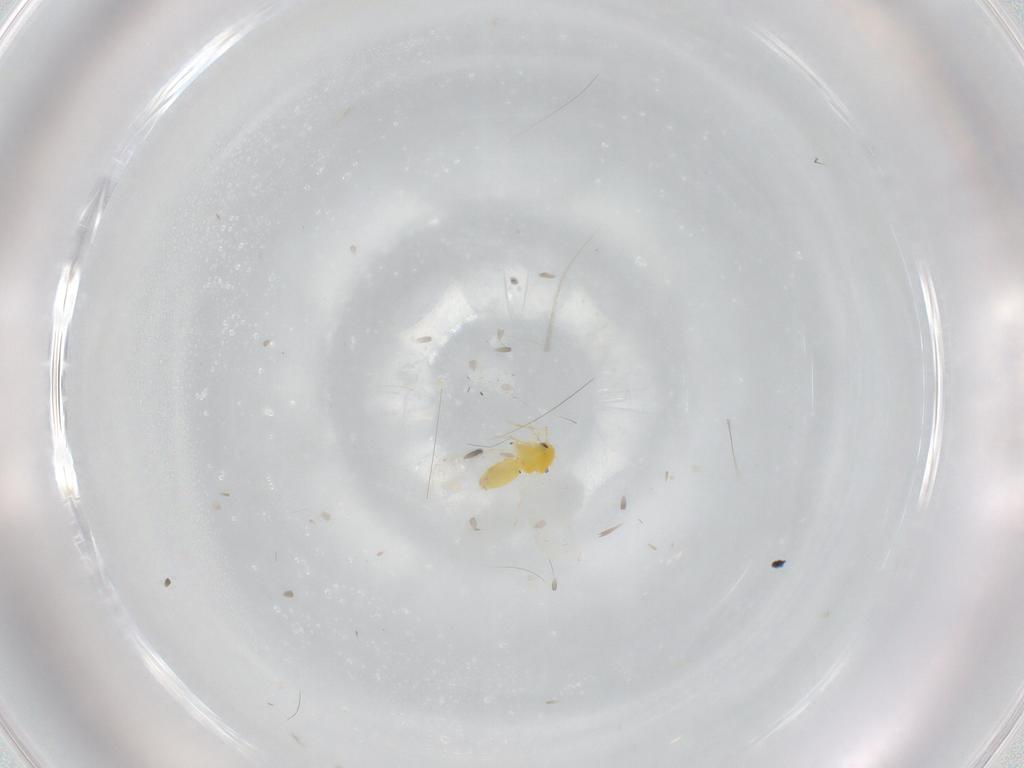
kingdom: Animalia
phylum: Arthropoda
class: Insecta
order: Hemiptera
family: Aleyrodidae
